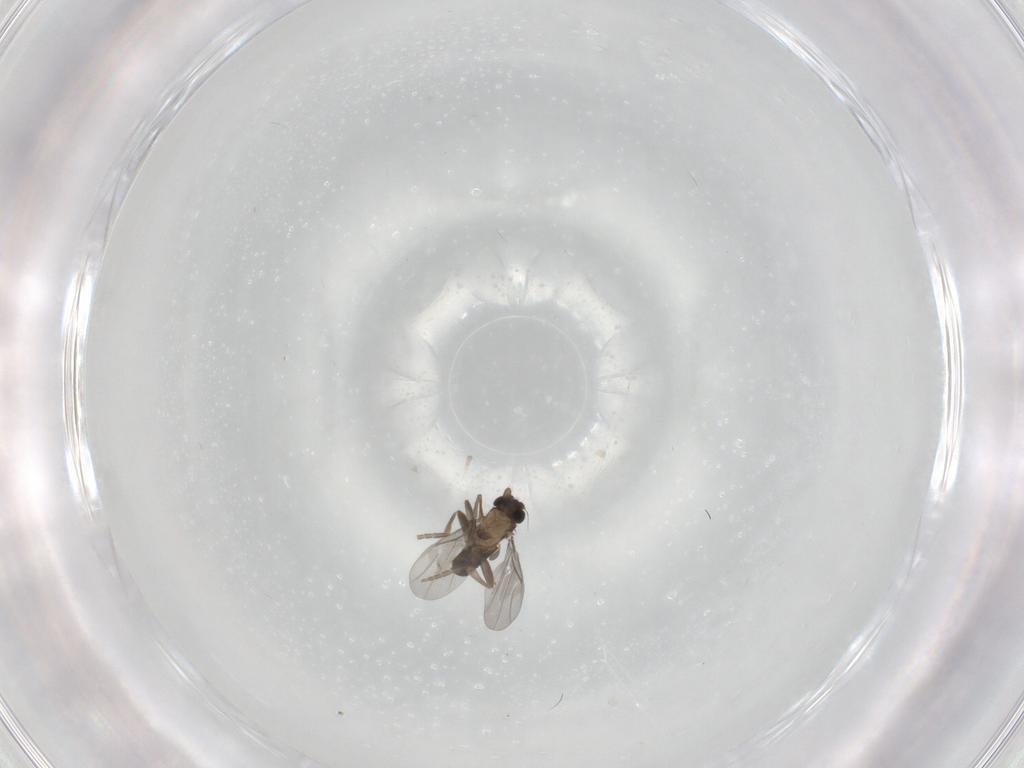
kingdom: Animalia
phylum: Arthropoda
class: Insecta
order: Diptera
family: Chironomidae
